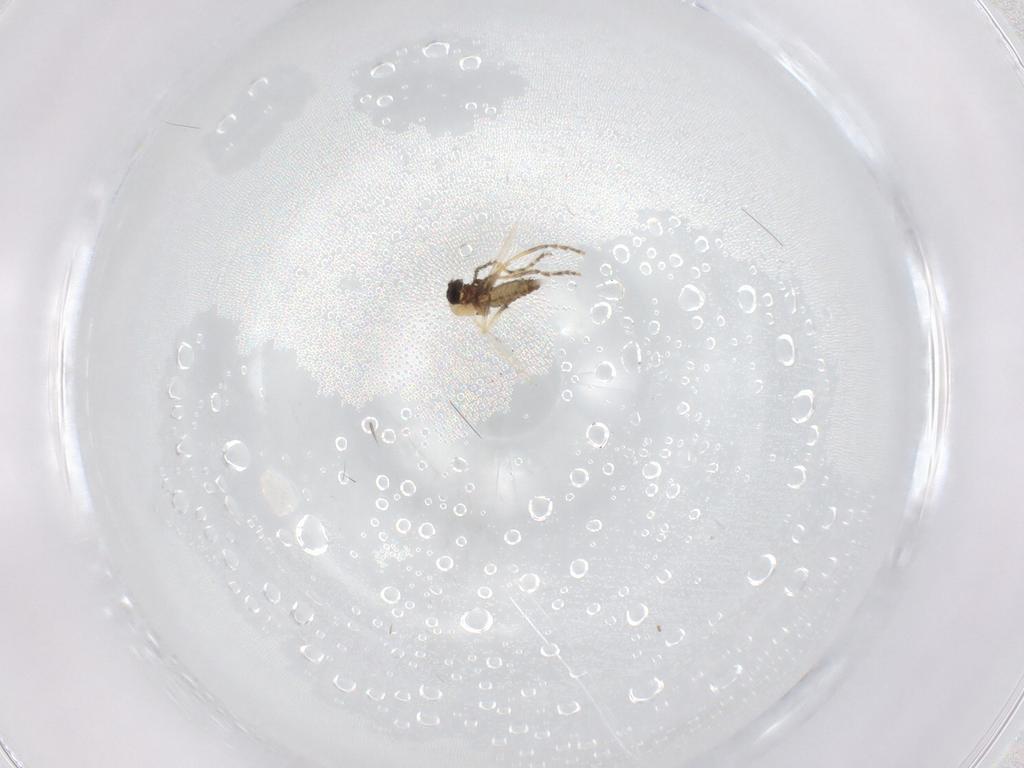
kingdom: Animalia
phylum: Arthropoda
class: Insecta
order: Diptera
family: Ceratopogonidae
